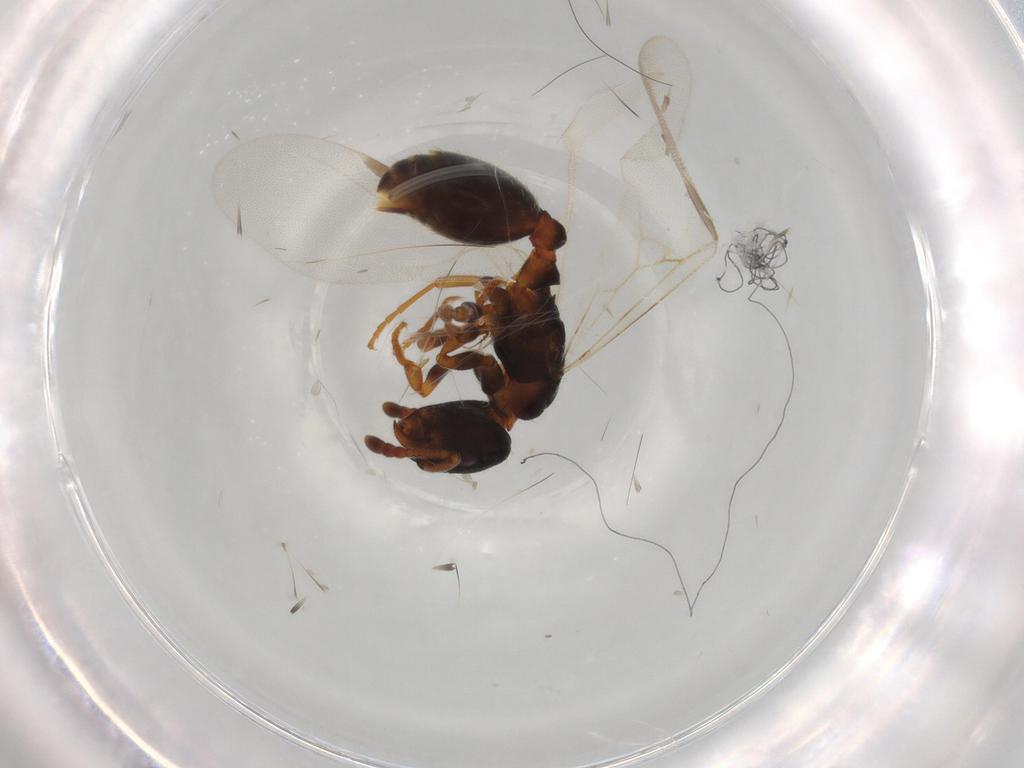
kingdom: Animalia
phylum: Arthropoda
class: Insecta
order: Hymenoptera
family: Formicidae
